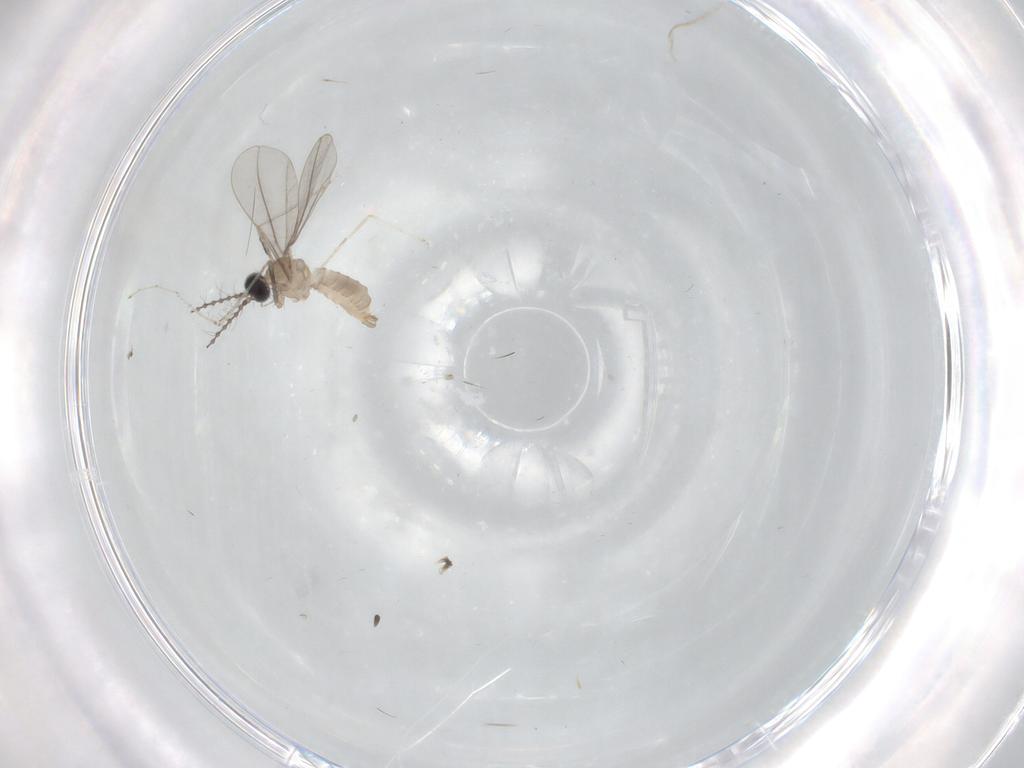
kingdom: Animalia
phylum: Arthropoda
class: Insecta
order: Diptera
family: Cecidomyiidae
